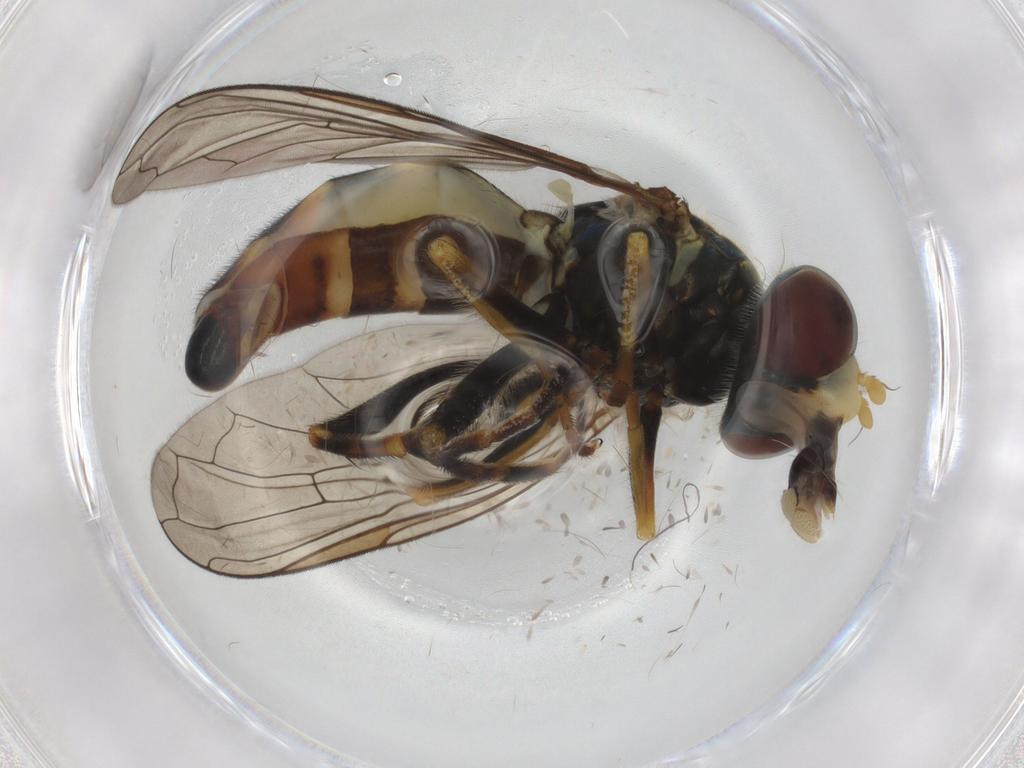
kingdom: Animalia
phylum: Arthropoda
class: Insecta
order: Diptera
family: Syrphidae
